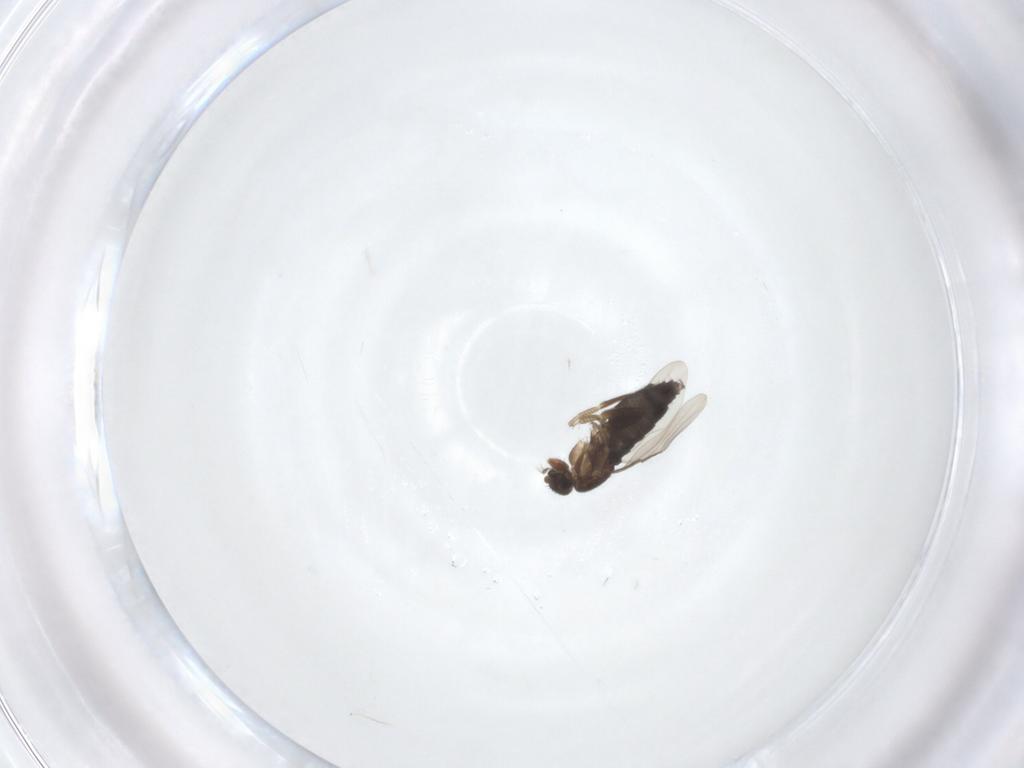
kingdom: Animalia
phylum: Arthropoda
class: Insecta
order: Diptera
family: Phoridae
